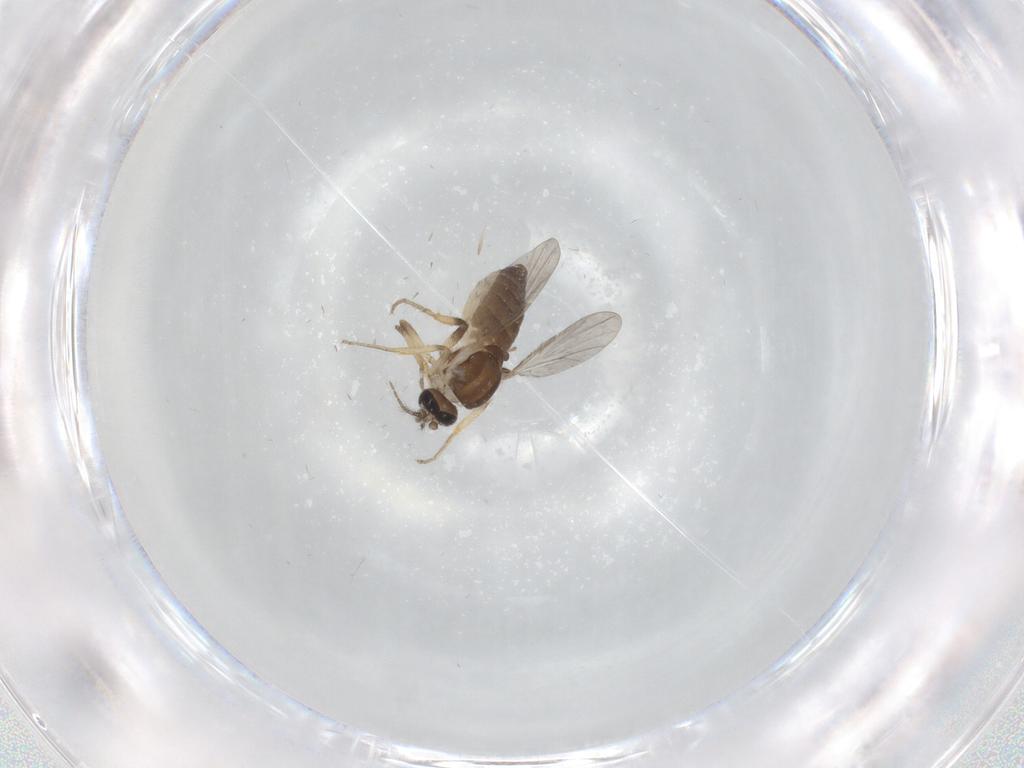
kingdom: Animalia
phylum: Arthropoda
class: Insecta
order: Diptera
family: Ceratopogonidae
